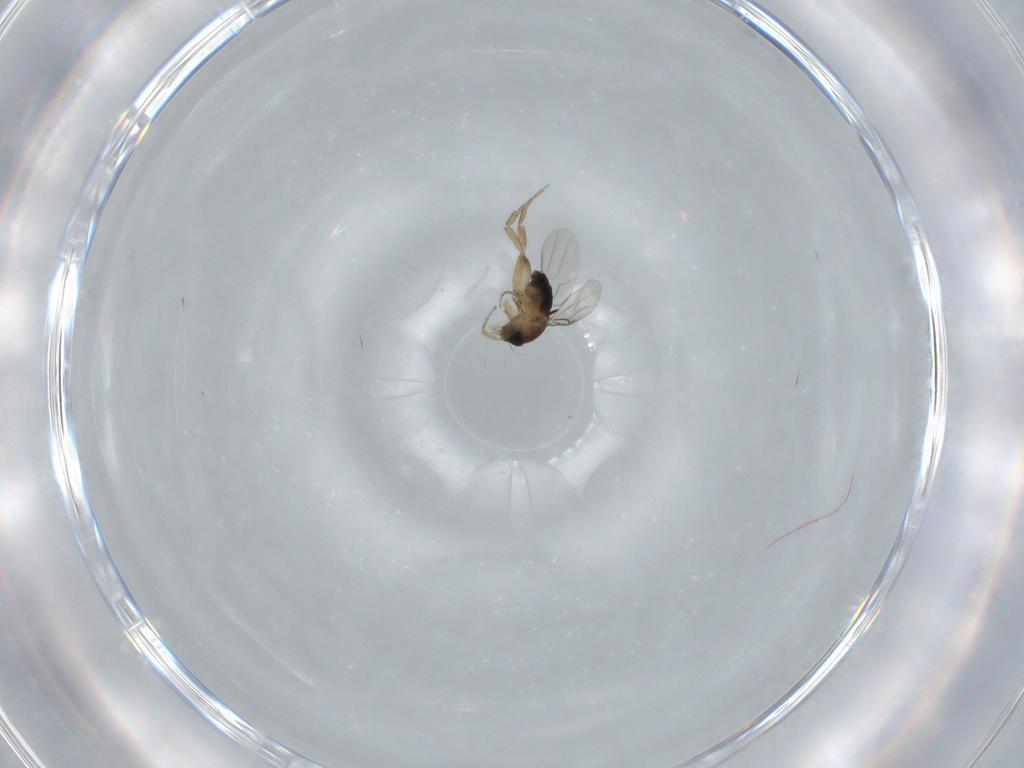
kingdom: Animalia
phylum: Arthropoda
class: Insecta
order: Diptera
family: Phoridae
